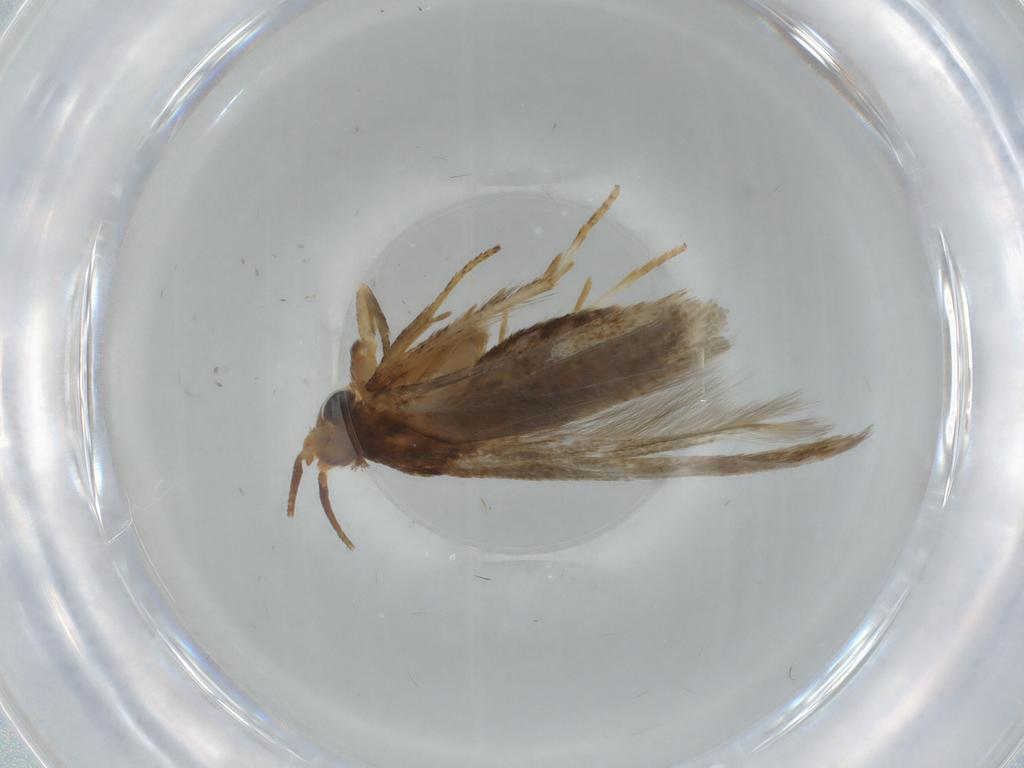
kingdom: Animalia
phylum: Arthropoda
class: Insecta
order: Lepidoptera
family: Blastobasidae
